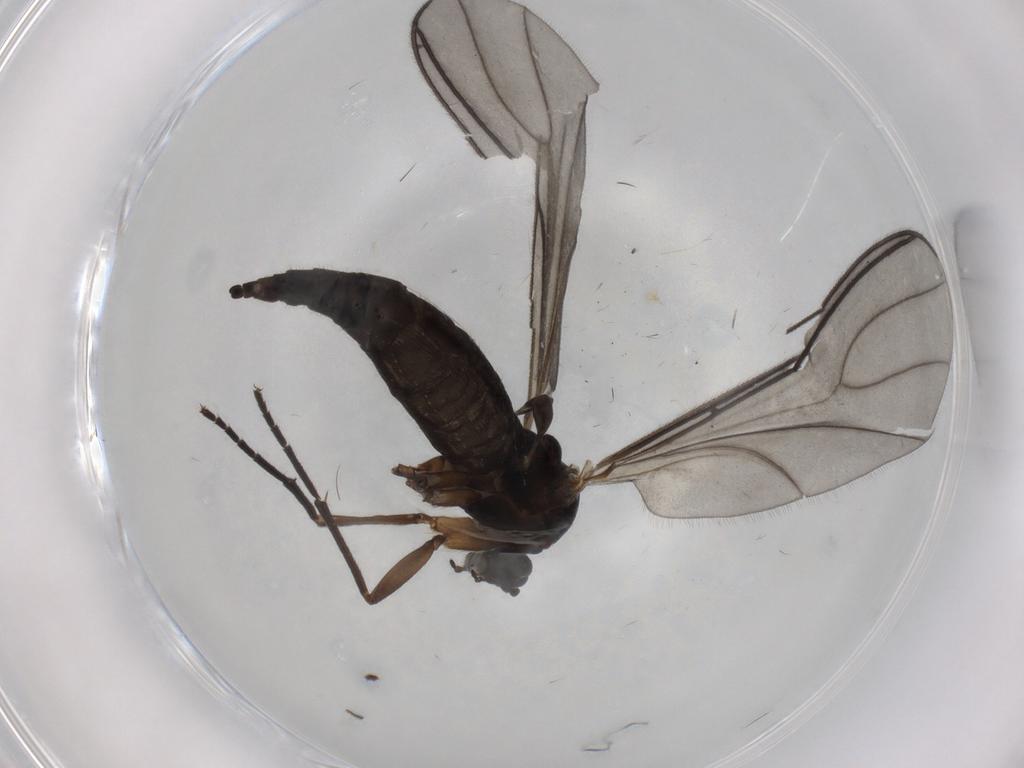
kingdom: Animalia
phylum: Arthropoda
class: Insecta
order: Diptera
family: Sciaridae
